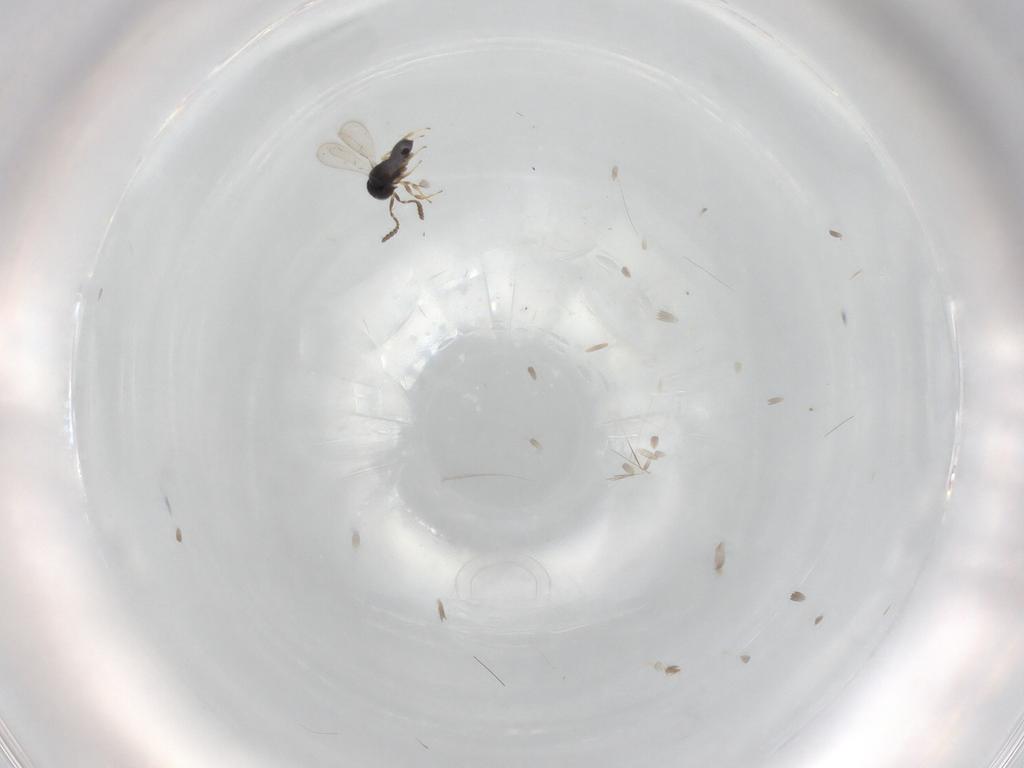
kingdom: Animalia
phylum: Arthropoda
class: Insecta
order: Hymenoptera
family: Scelionidae
